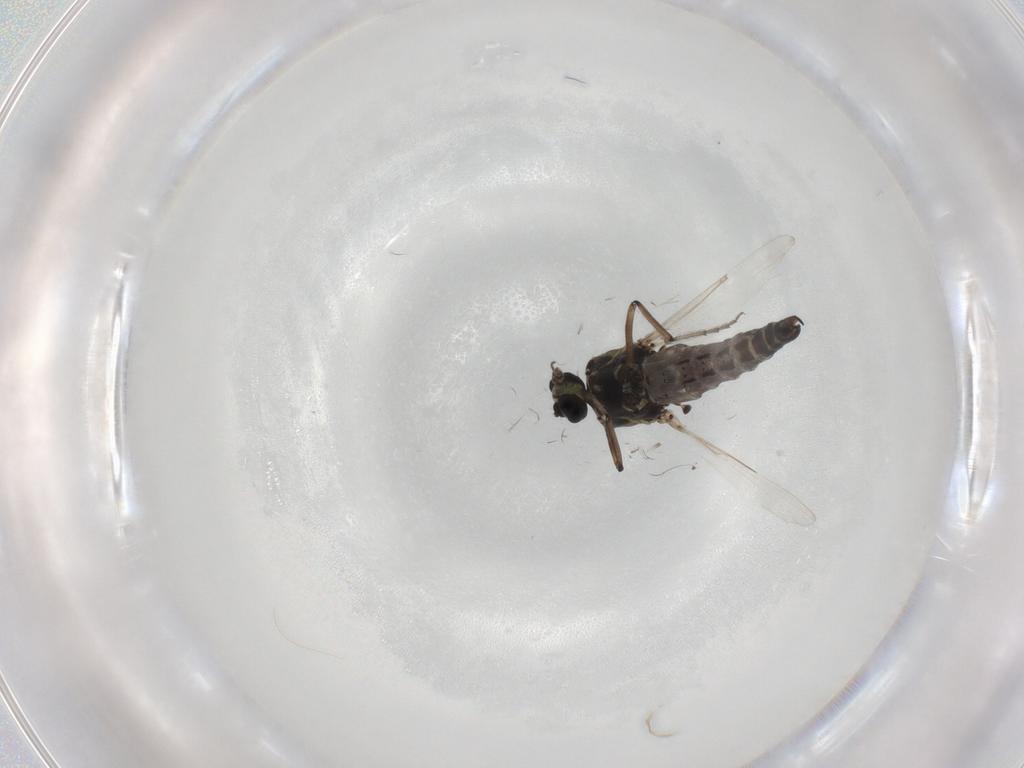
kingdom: Animalia
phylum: Arthropoda
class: Insecta
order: Diptera
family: Culicidae
